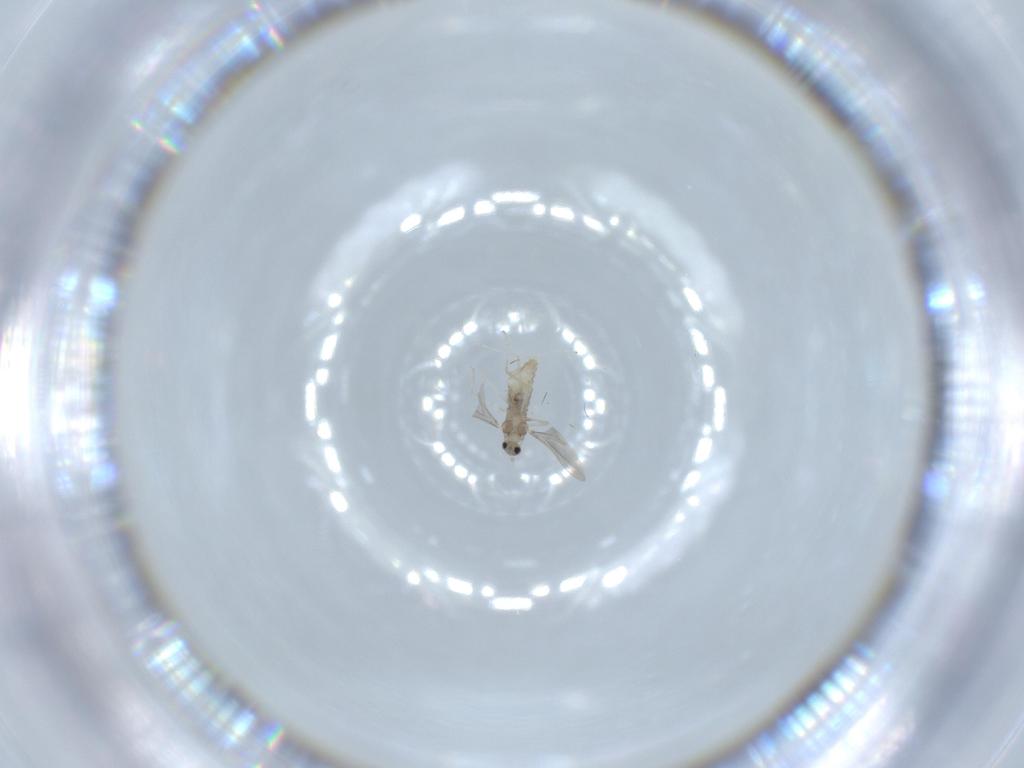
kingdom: Animalia
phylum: Arthropoda
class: Insecta
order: Diptera
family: Cecidomyiidae
